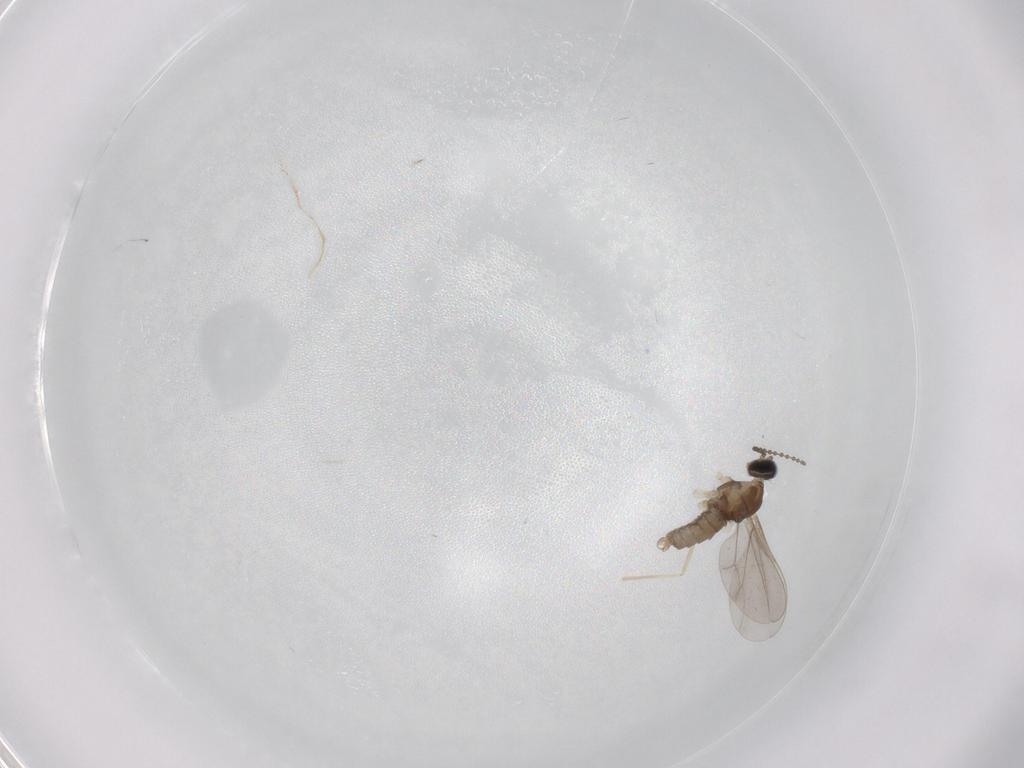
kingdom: Animalia
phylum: Arthropoda
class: Insecta
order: Diptera
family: Cecidomyiidae
